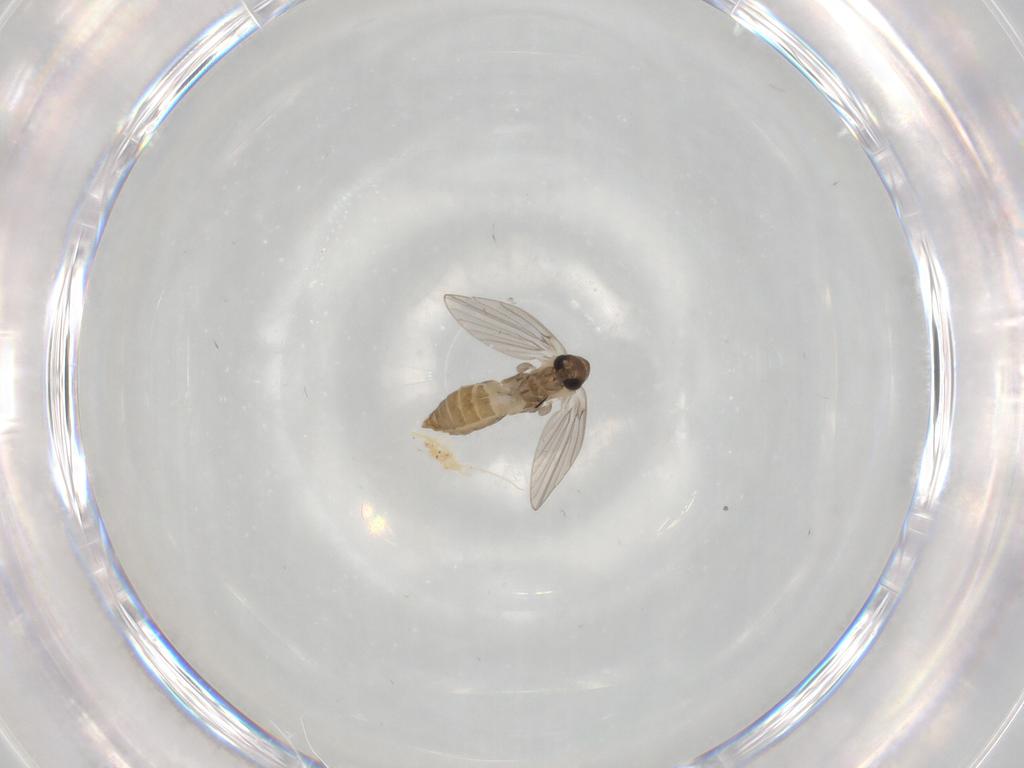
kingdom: Animalia
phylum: Arthropoda
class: Insecta
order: Diptera
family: Ceratopogonidae
